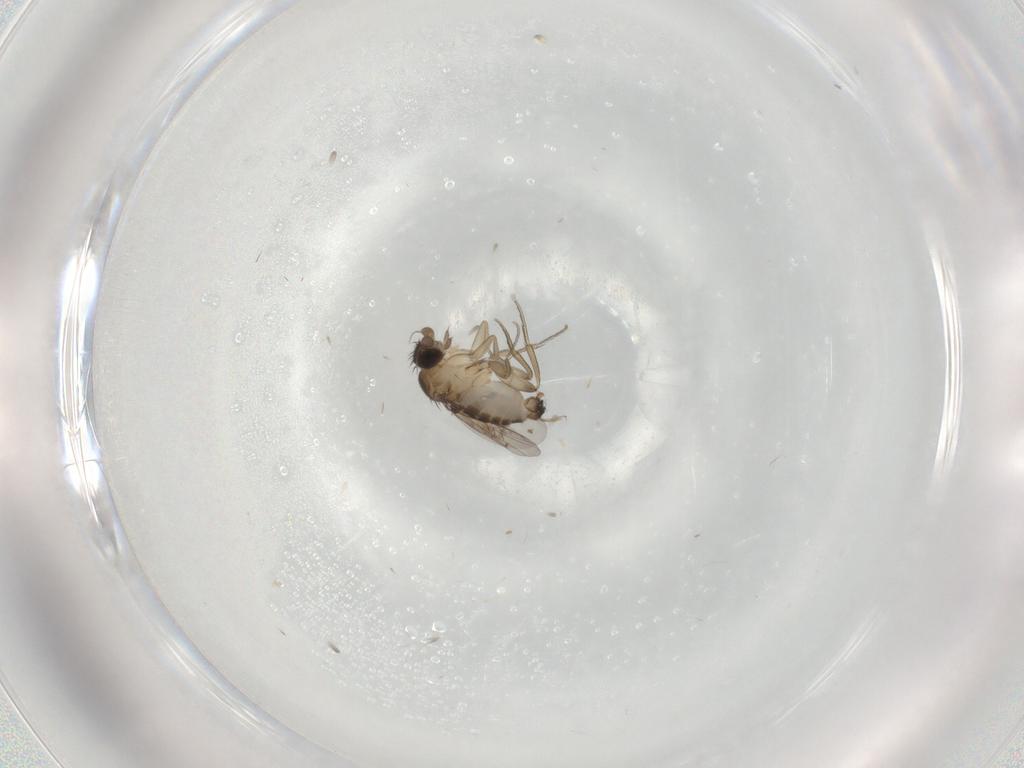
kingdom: Animalia
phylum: Arthropoda
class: Insecta
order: Diptera
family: Phoridae
